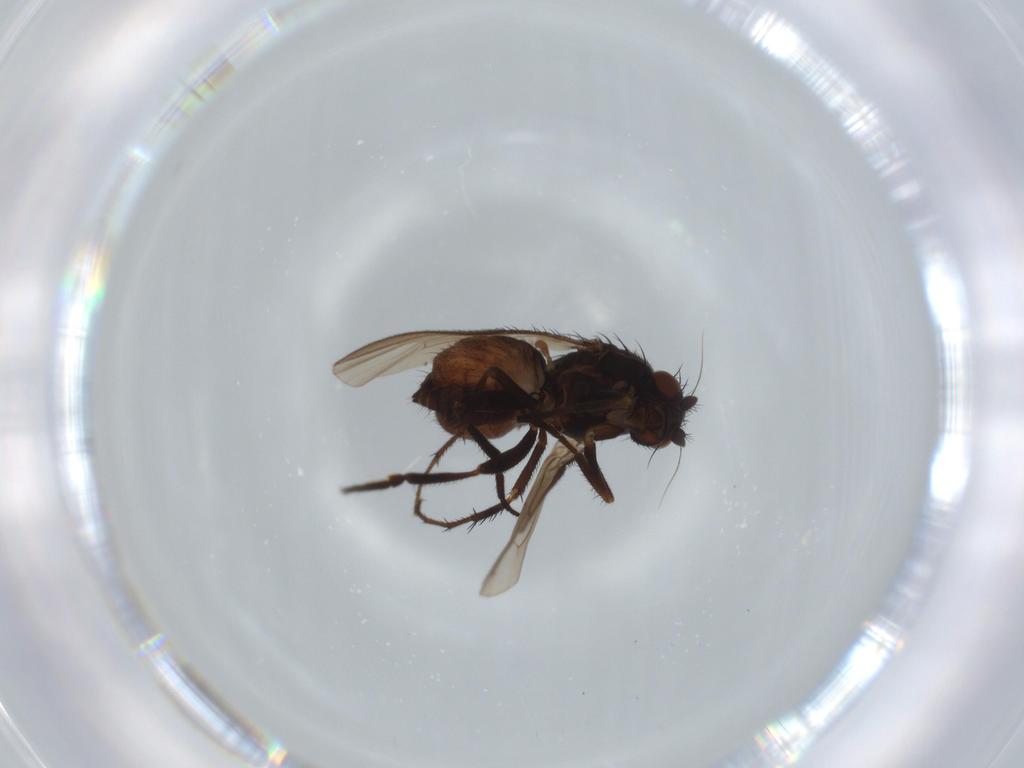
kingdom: Animalia
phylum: Arthropoda
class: Insecta
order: Diptera
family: Sphaeroceridae
